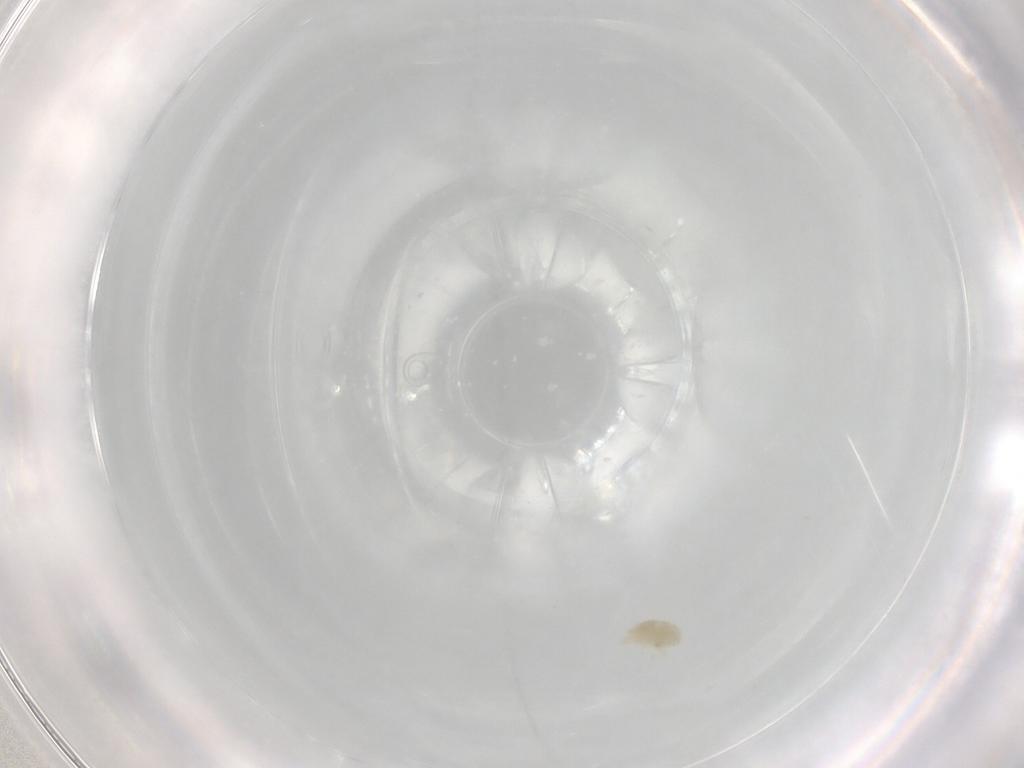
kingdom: Animalia
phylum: Arthropoda
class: Arachnida
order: Trombidiformes
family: Eupodidae
